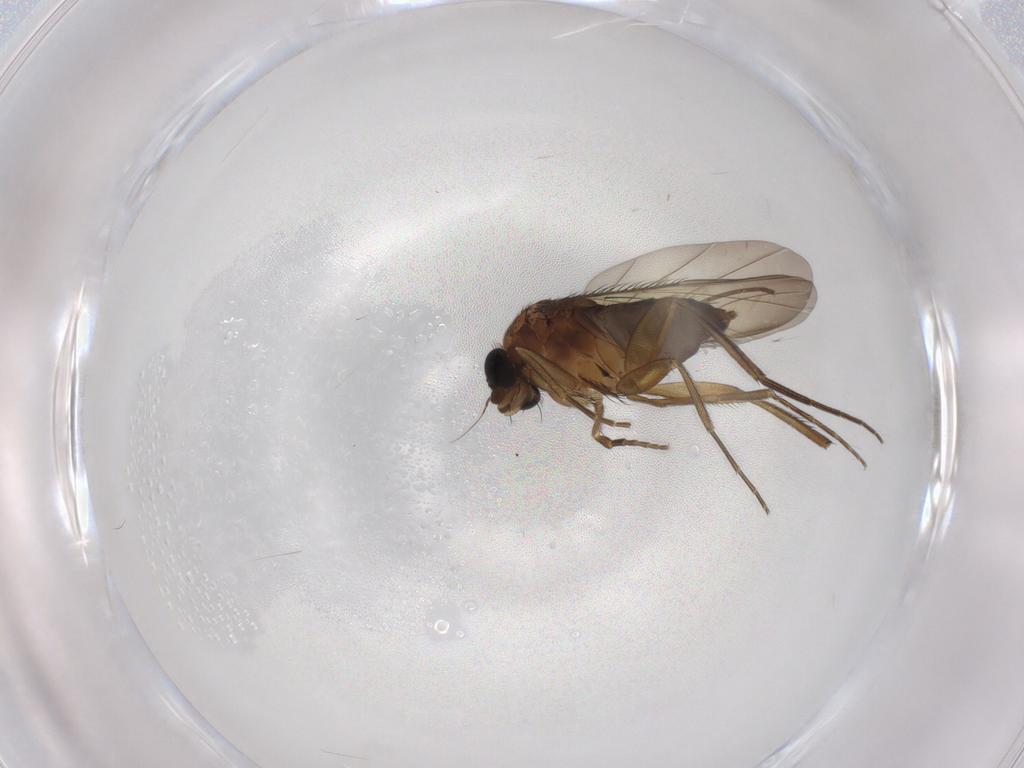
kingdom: Animalia
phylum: Arthropoda
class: Insecta
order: Diptera
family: Phoridae
